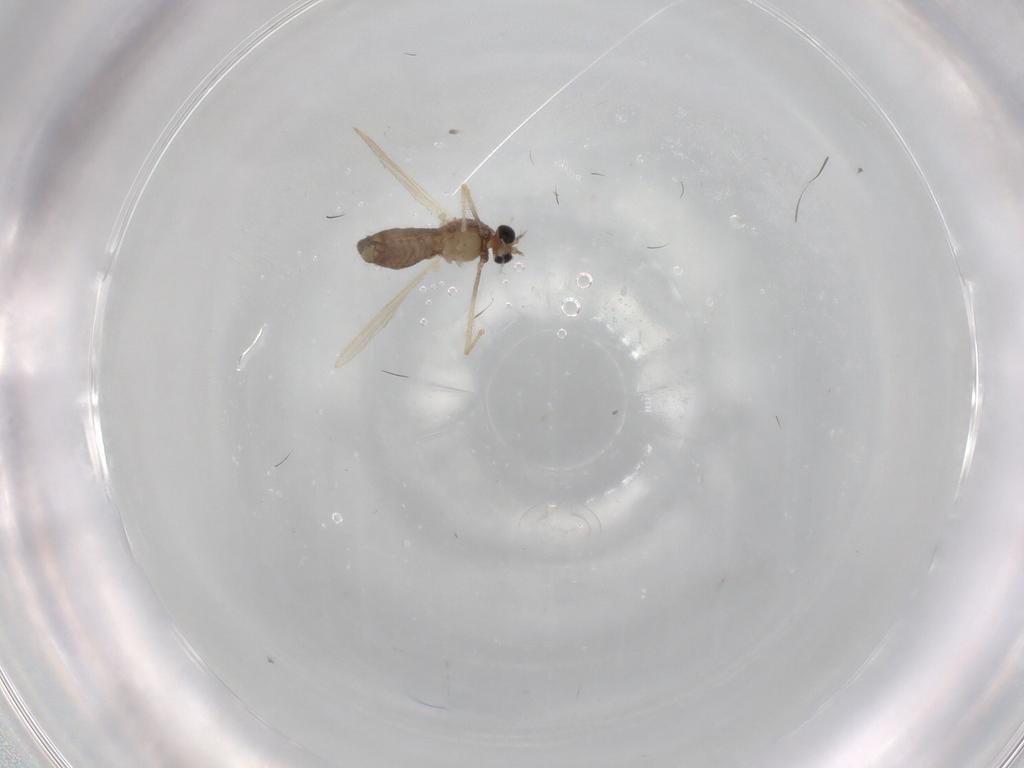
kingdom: Animalia
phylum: Arthropoda
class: Insecta
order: Diptera
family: Chironomidae
